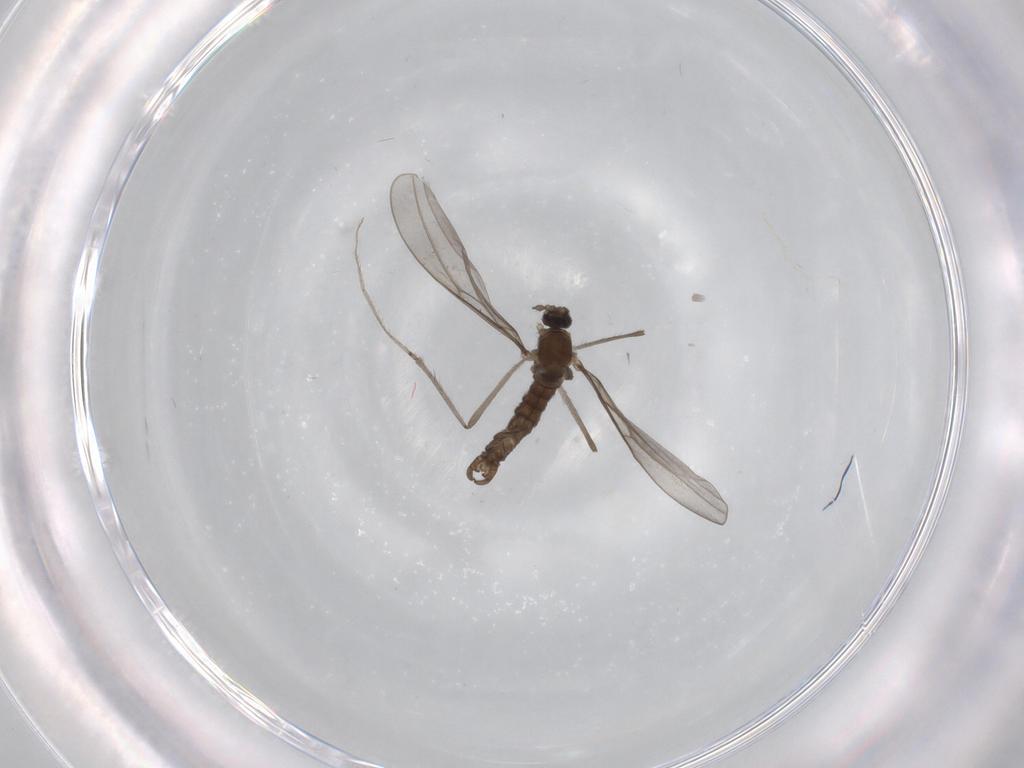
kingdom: Animalia
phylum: Arthropoda
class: Insecta
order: Diptera
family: Cecidomyiidae
